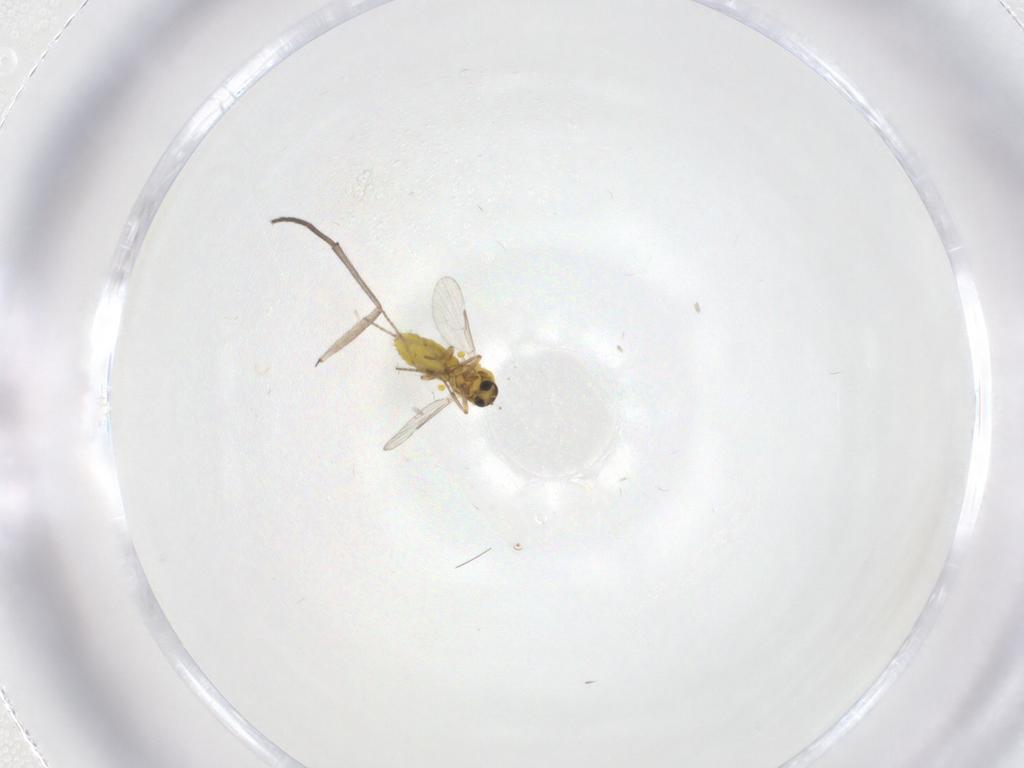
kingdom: Animalia
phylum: Arthropoda
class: Insecta
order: Diptera
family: Ceratopogonidae
